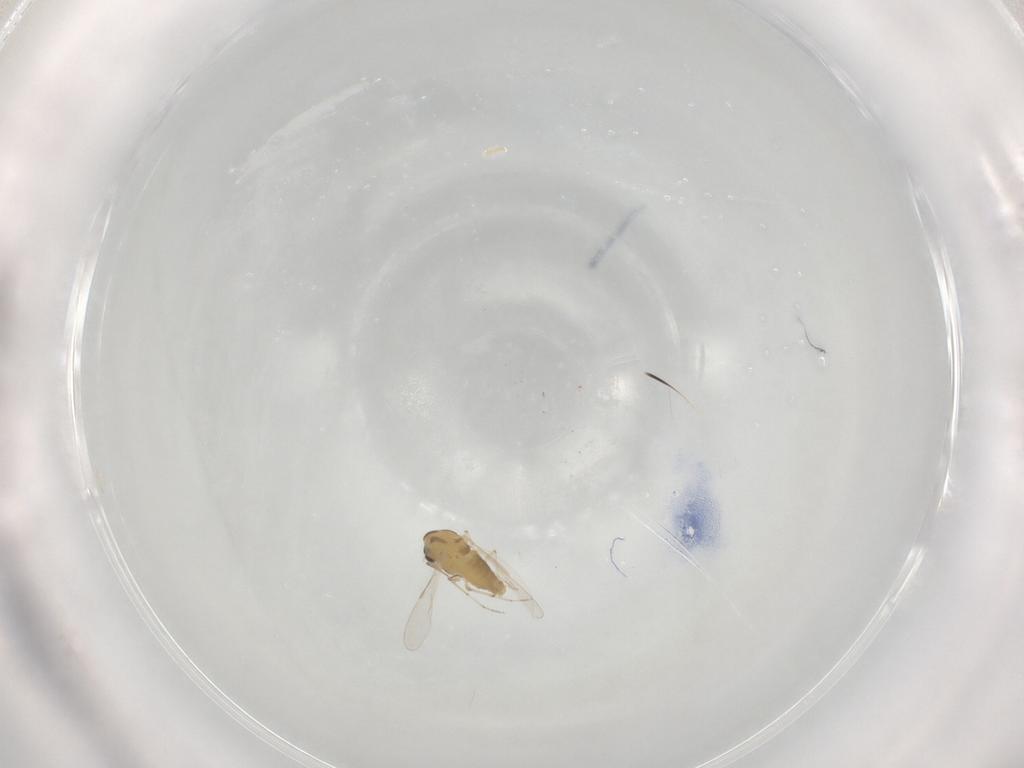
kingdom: Animalia
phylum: Arthropoda
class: Insecta
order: Diptera
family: Chironomidae
